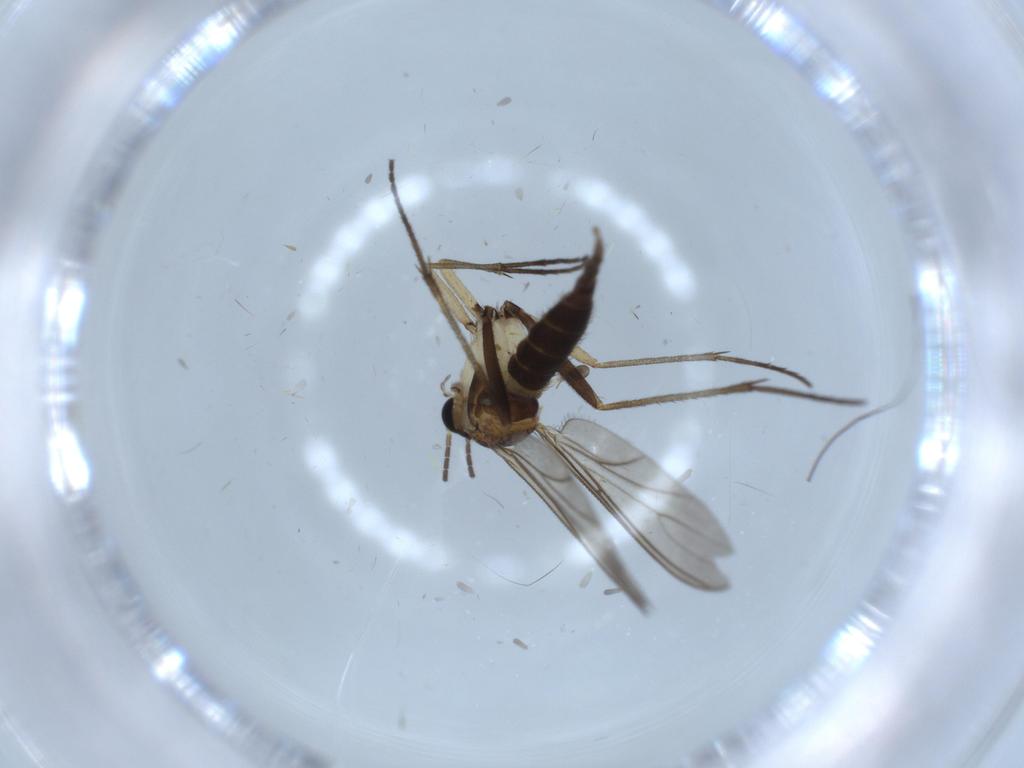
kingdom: Animalia
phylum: Arthropoda
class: Insecta
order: Diptera
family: Sciaridae
